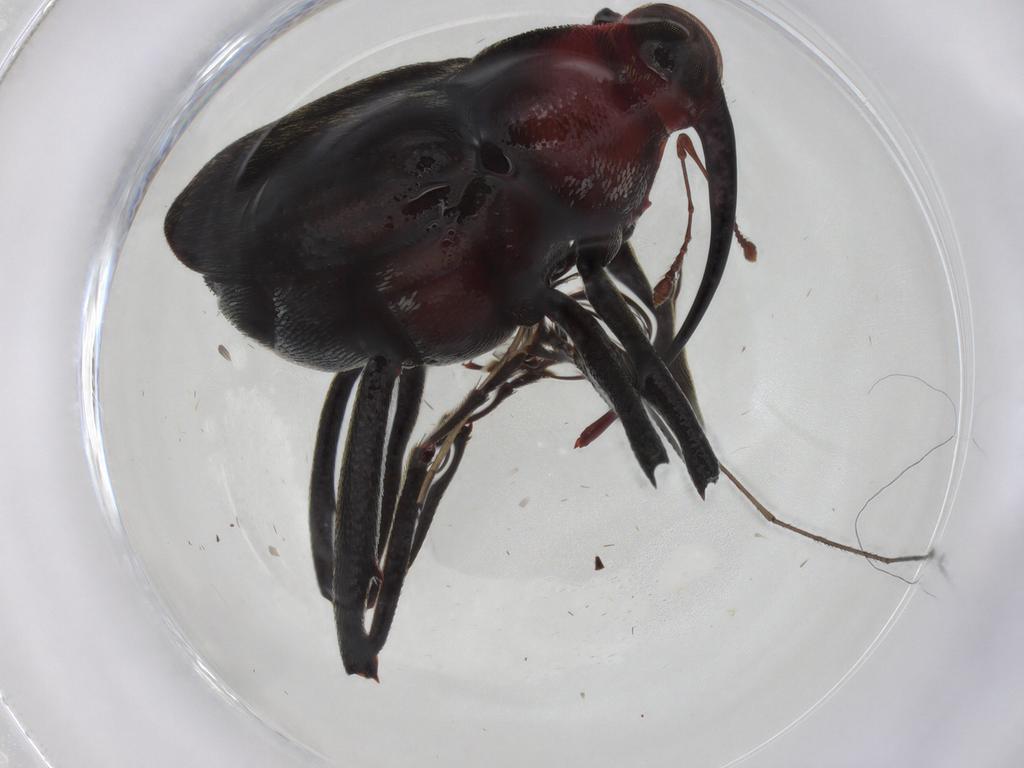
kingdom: Animalia
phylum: Arthropoda
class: Insecta
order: Coleoptera
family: Curculionidae
